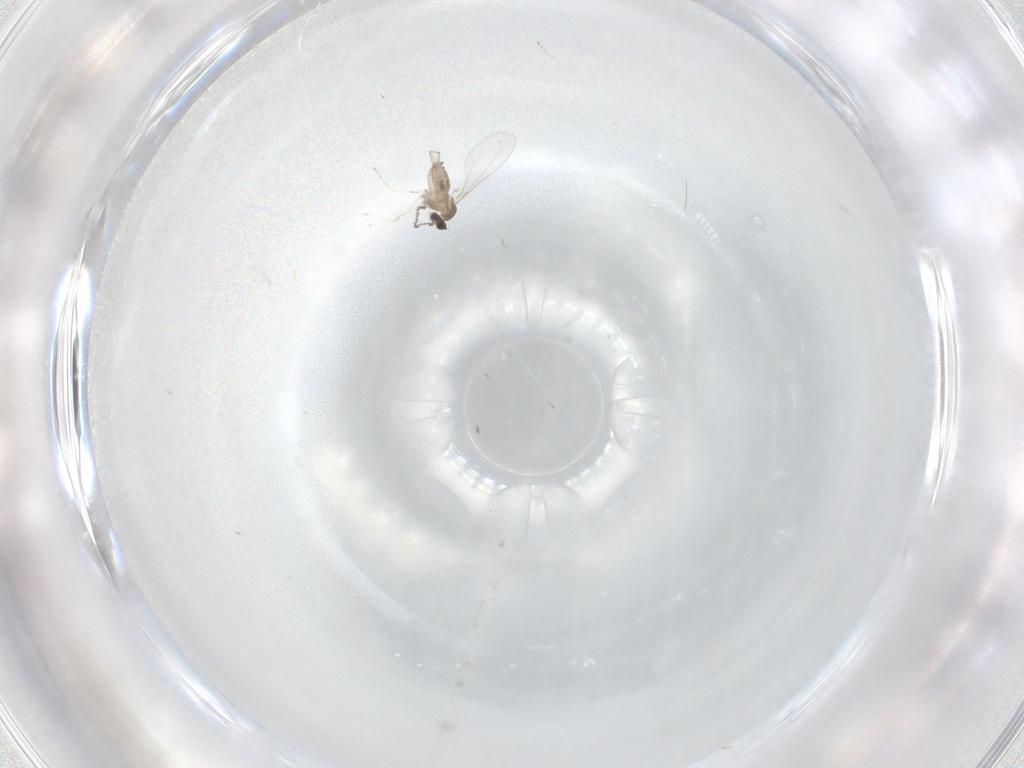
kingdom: Animalia
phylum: Arthropoda
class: Insecta
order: Diptera
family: Cecidomyiidae
